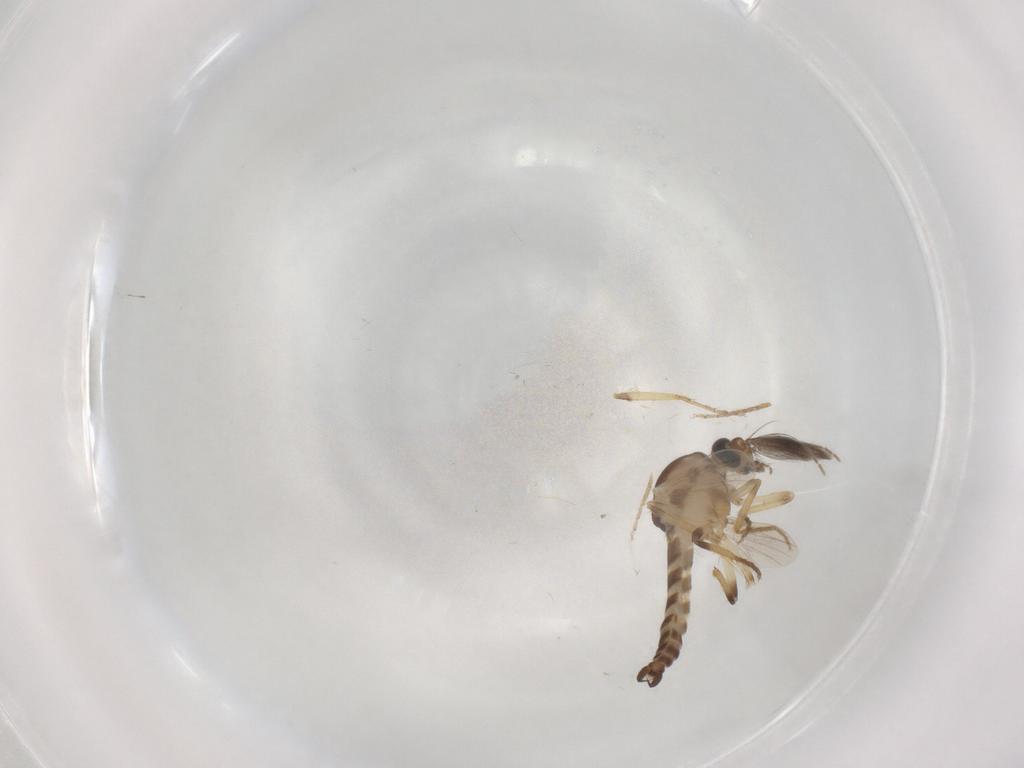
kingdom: Animalia
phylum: Arthropoda
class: Insecta
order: Diptera
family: Ceratopogonidae
